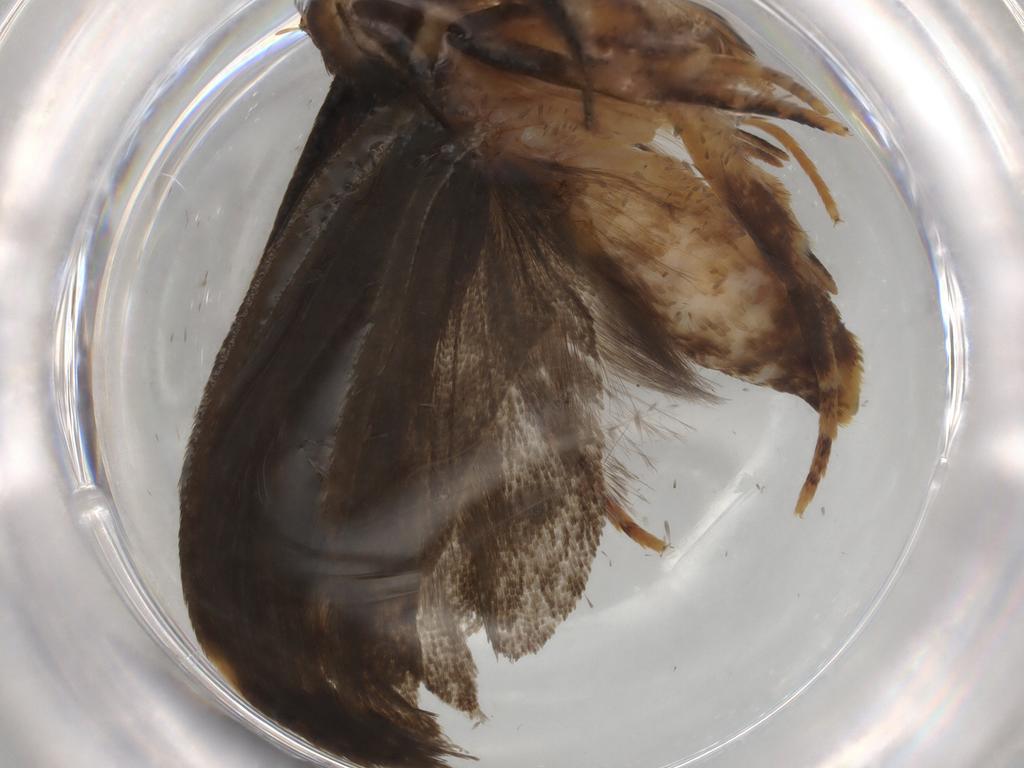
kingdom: Animalia
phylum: Arthropoda
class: Insecta
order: Lepidoptera
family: Gelechiidae
